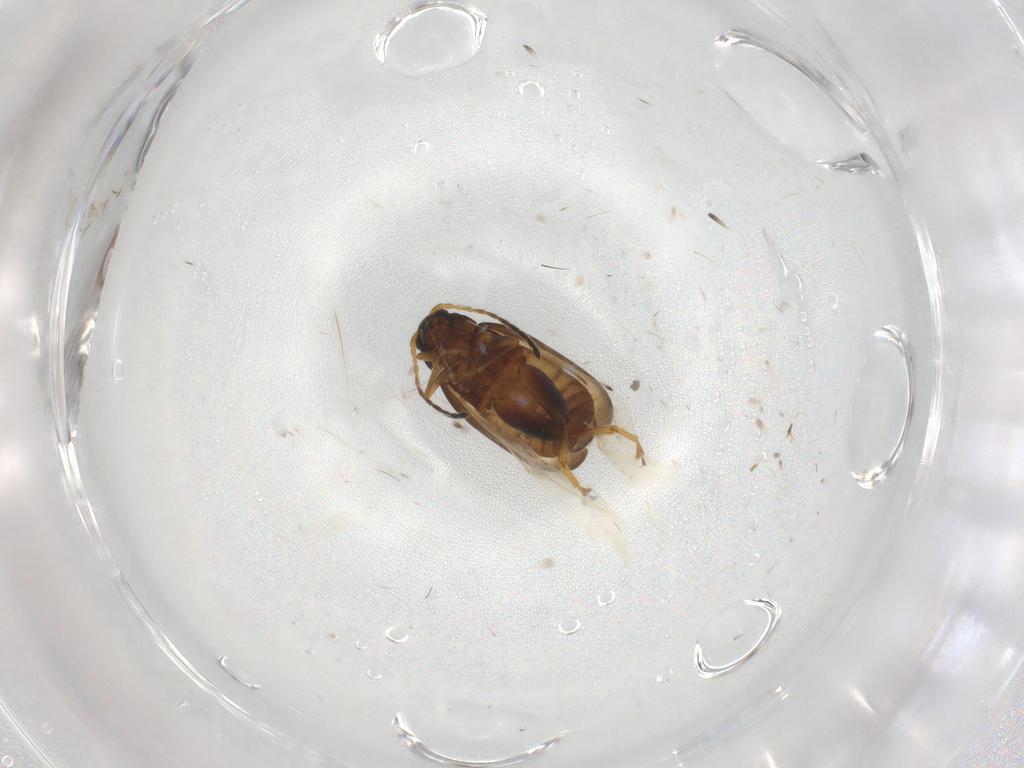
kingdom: Animalia
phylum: Arthropoda
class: Insecta
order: Coleoptera
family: Chrysomelidae
